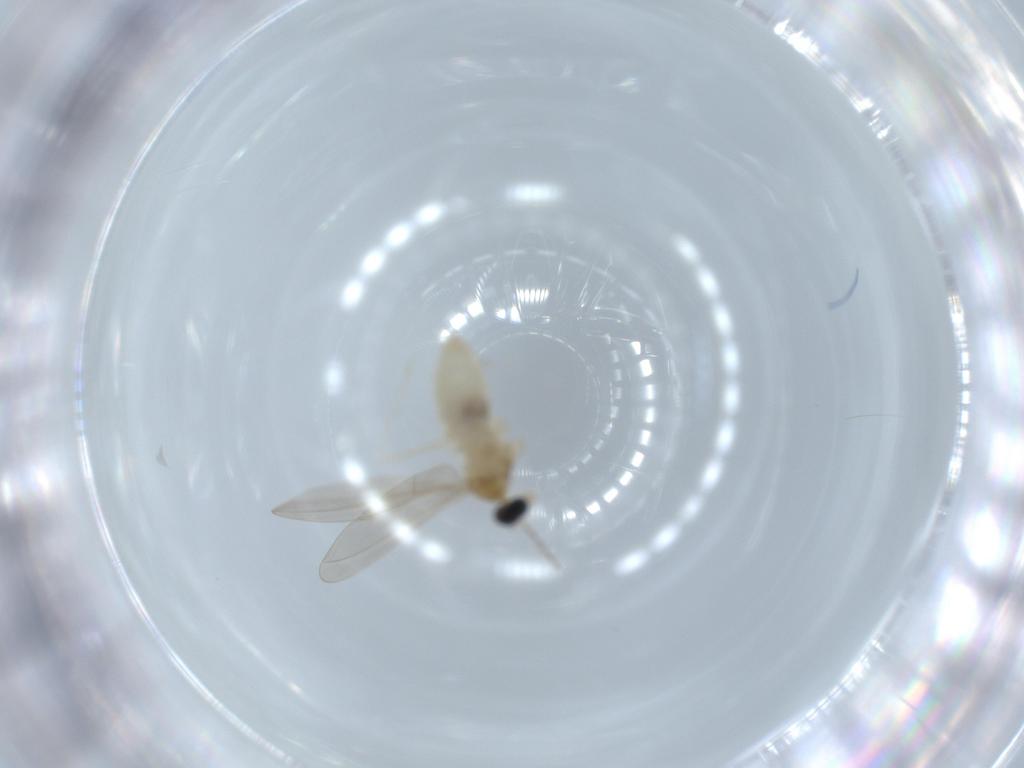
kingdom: Animalia
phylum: Arthropoda
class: Insecta
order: Diptera
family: Cecidomyiidae
